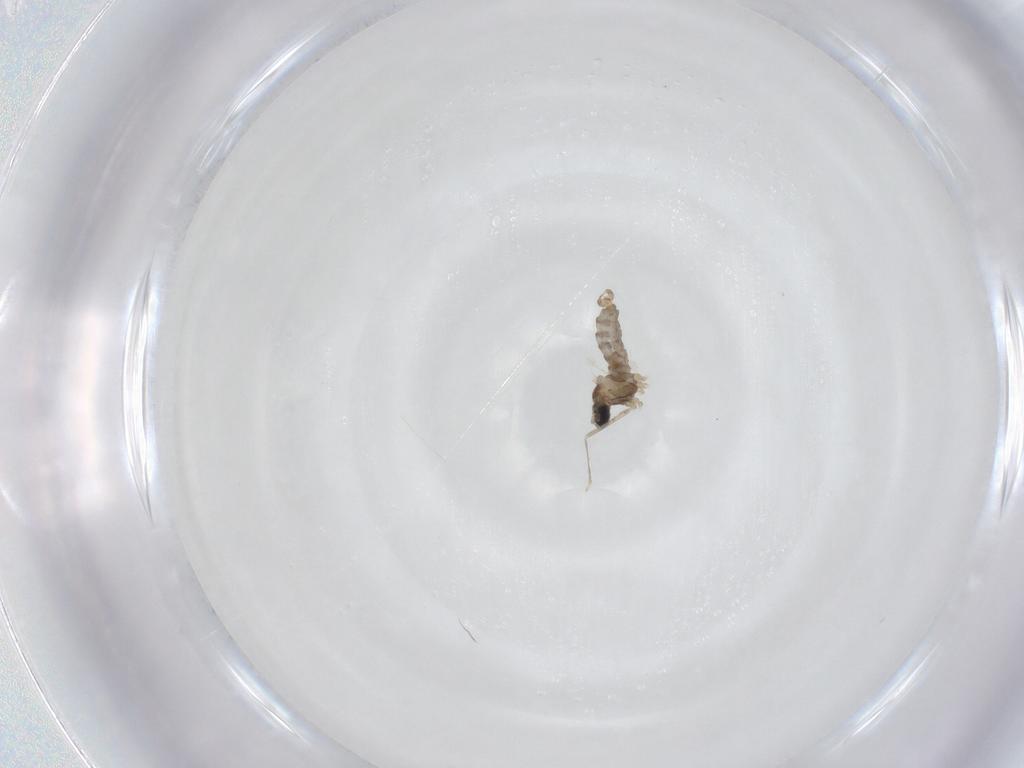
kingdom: Animalia
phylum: Arthropoda
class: Insecta
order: Diptera
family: Cecidomyiidae
